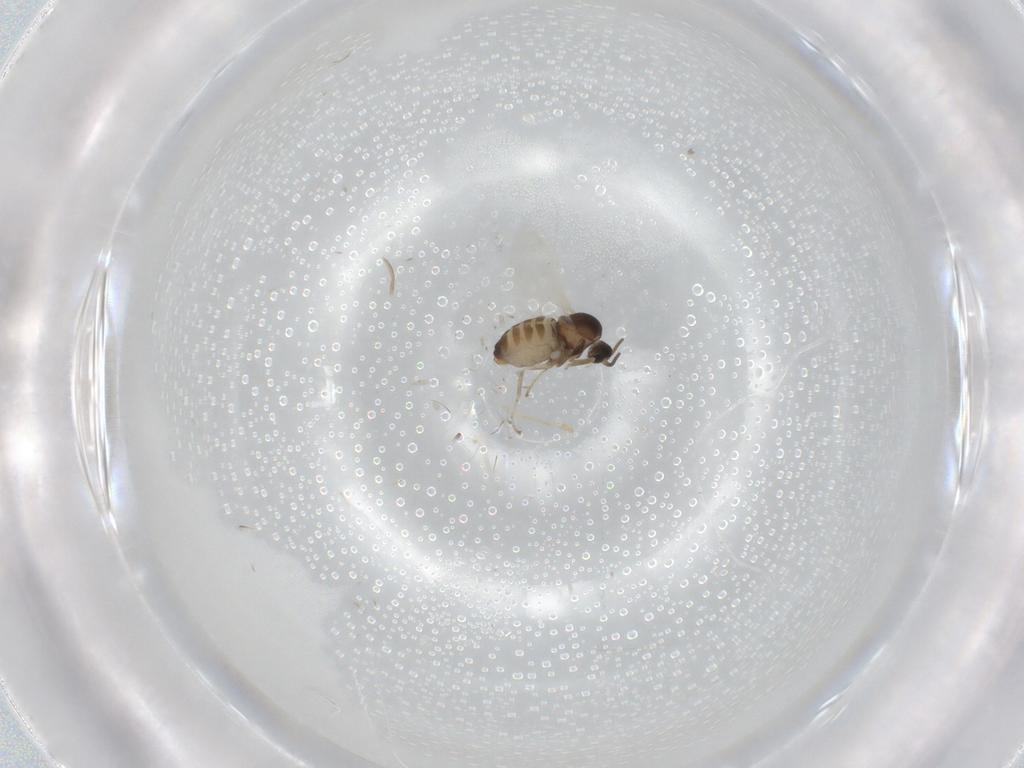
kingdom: Animalia
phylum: Arthropoda
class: Insecta
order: Diptera
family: Cecidomyiidae
